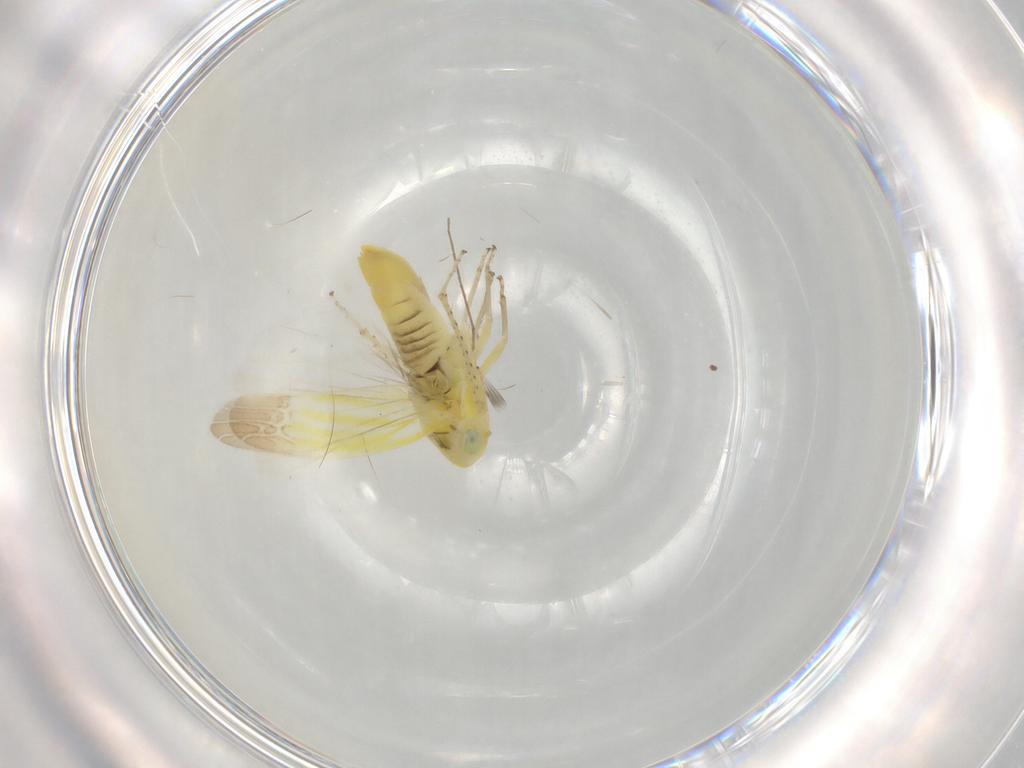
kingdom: Animalia
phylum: Arthropoda
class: Insecta
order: Hemiptera
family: Cicadellidae
